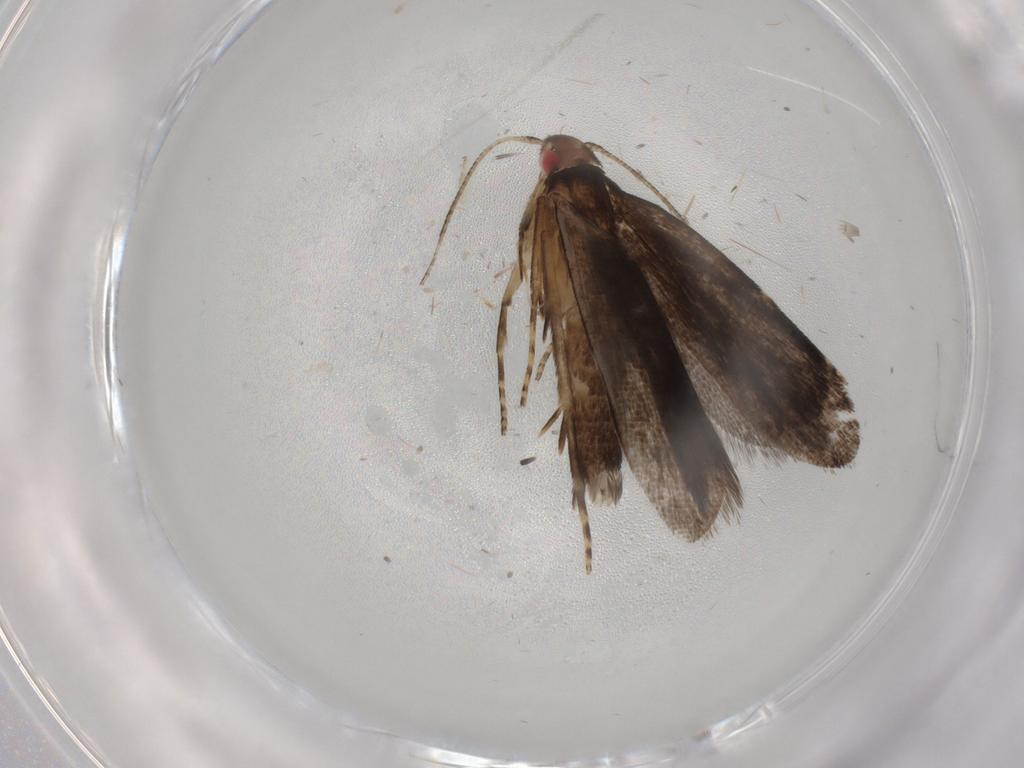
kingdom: Animalia
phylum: Arthropoda
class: Insecta
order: Lepidoptera
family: Gelechiidae
